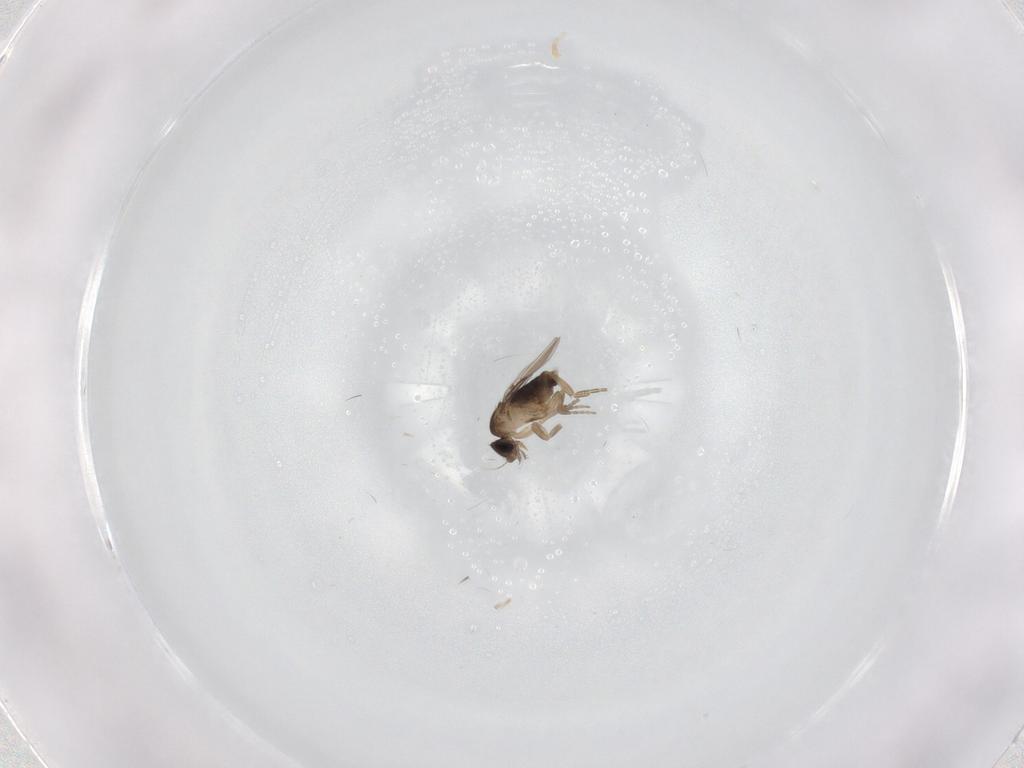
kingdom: Animalia
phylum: Arthropoda
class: Insecta
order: Diptera
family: Phoridae
